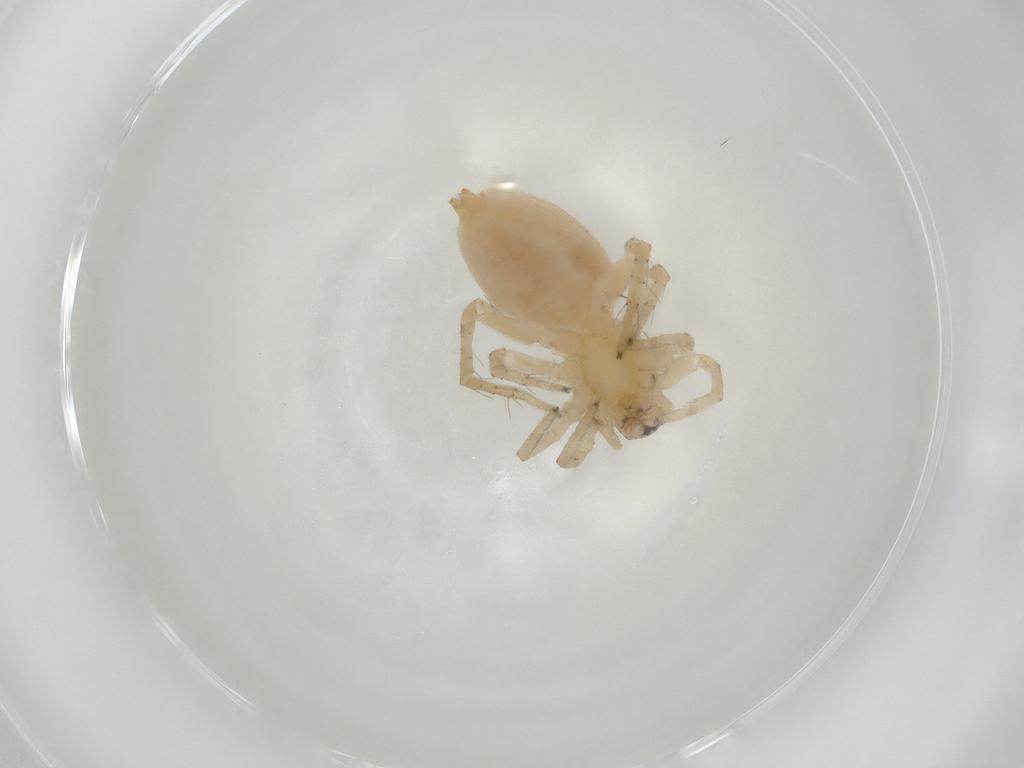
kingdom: Animalia
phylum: Arthropoda
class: Arachnida
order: Araneae
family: Clubionidae
